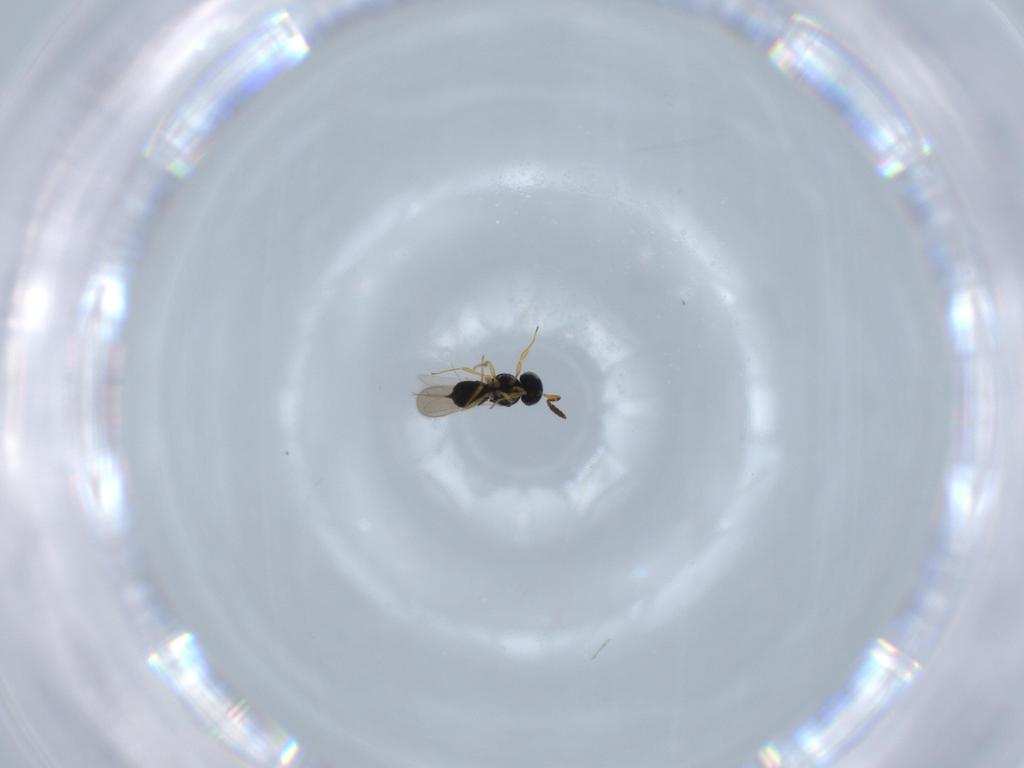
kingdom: Animalia
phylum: Arthropoda
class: Insecta
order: Hymenoptera
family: Scelionidae
